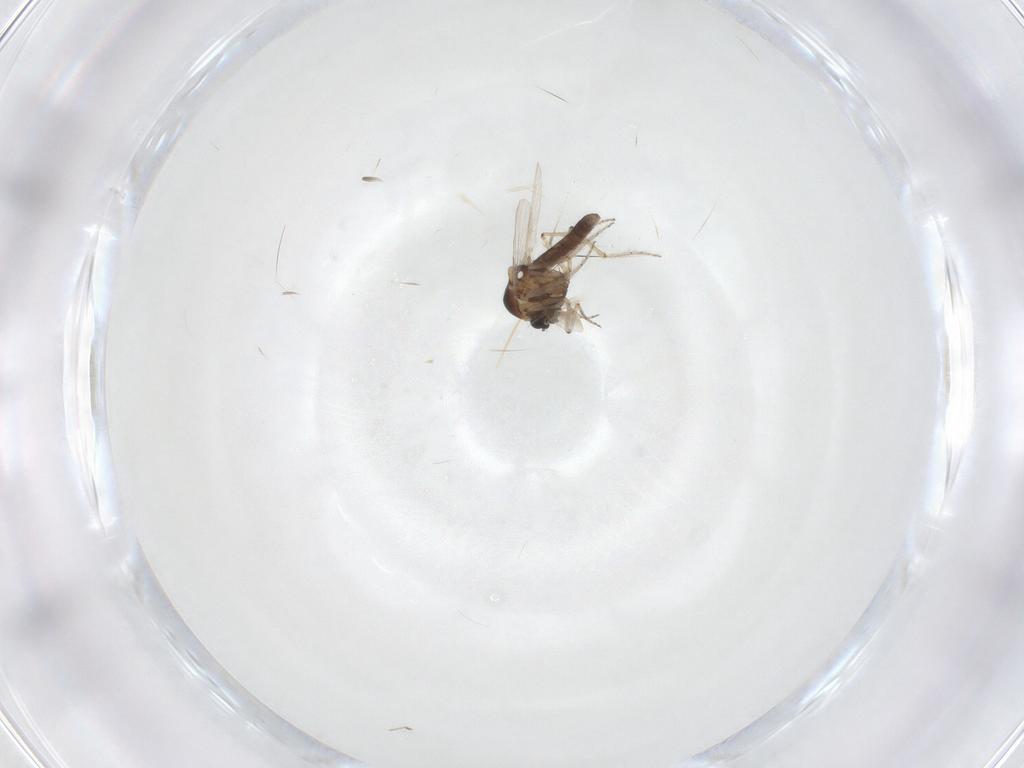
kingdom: Animalia
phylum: Arthropoda
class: Insecta
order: Diptera
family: Ceratopogonidae
